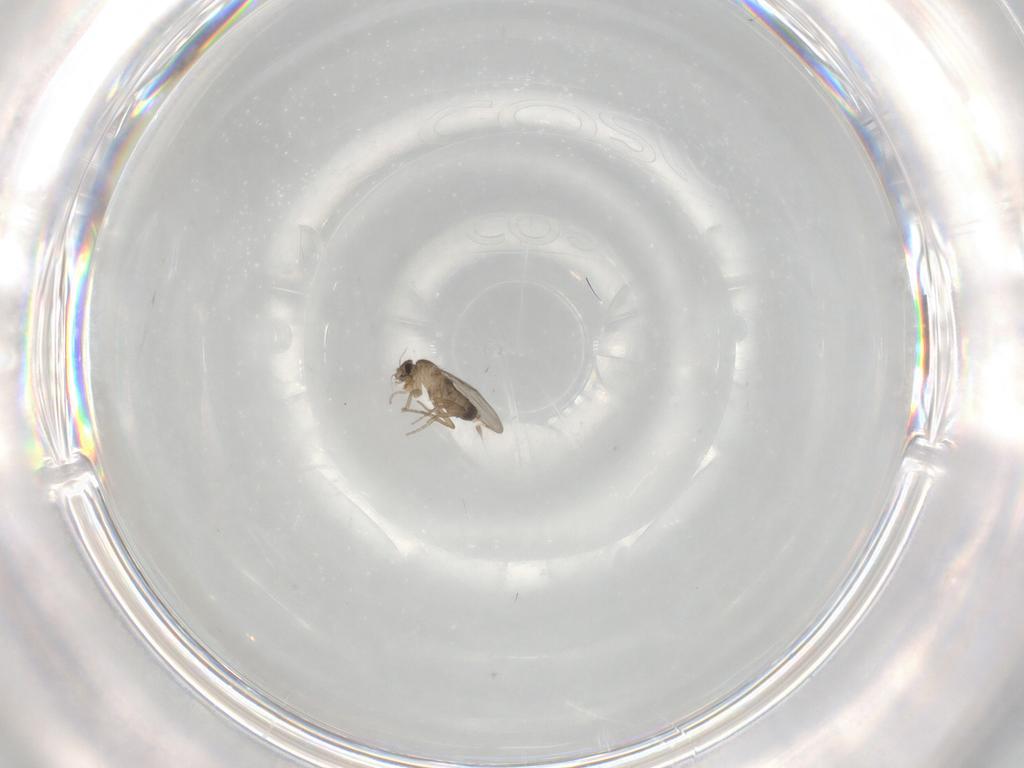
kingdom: Animalia
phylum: Arthropoda
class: Insecta
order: Diptera
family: Phoridae
